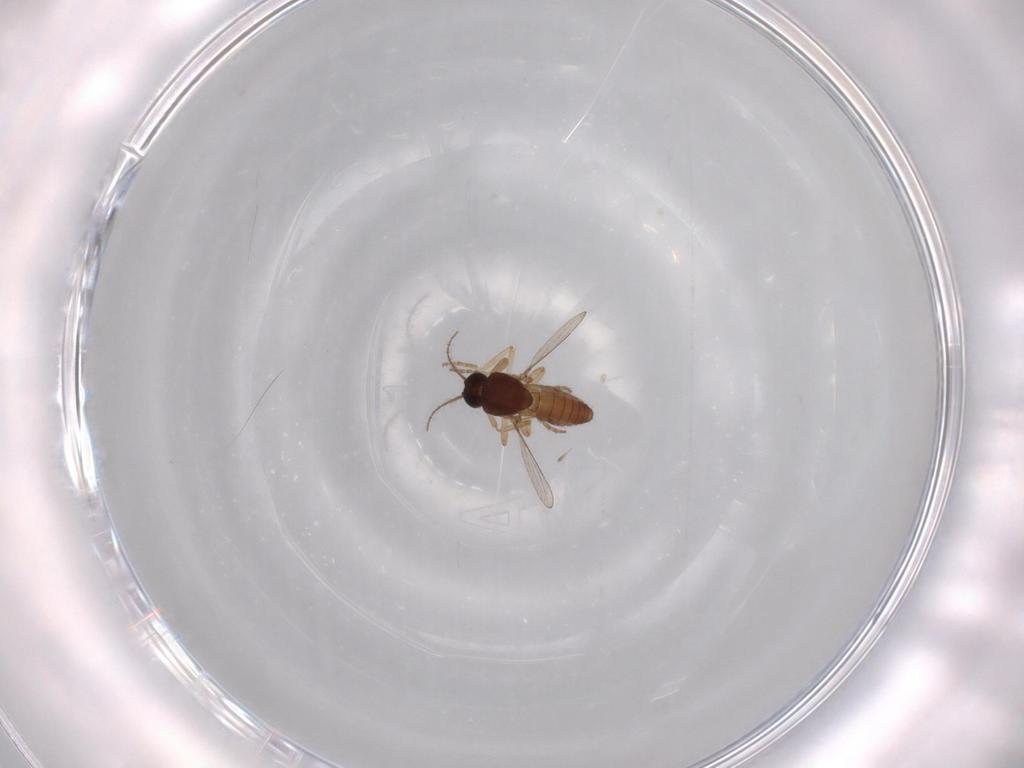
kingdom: Animalia
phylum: Arthropoda
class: Insecta
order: Diptera
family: Ceratopogonidae
